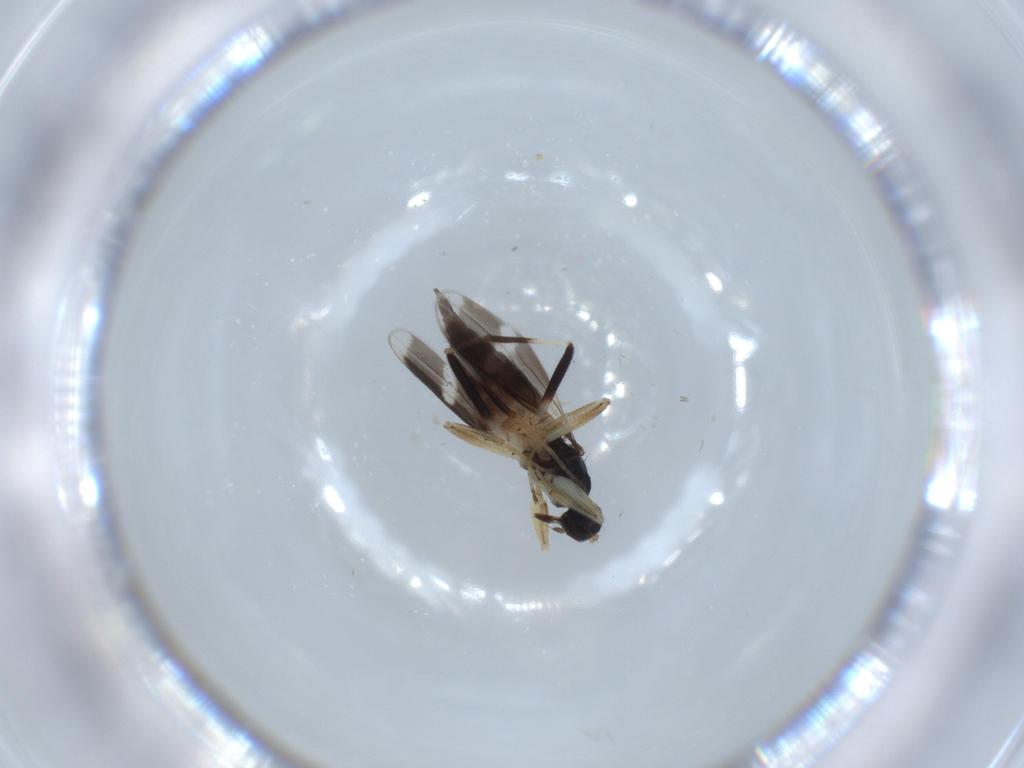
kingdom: Animalia
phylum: Arthropoda
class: Insecta
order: Diptera
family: Hybotidae
